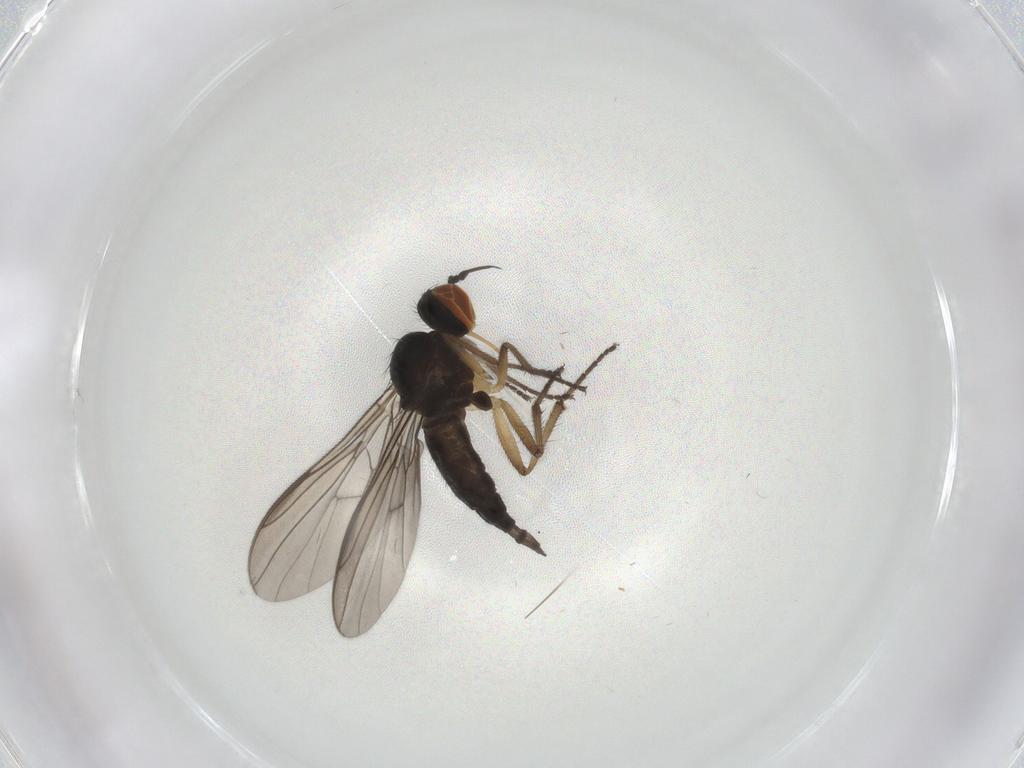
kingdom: Animalia
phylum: Arthropoda
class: Insecta
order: Diptera
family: Empididae
